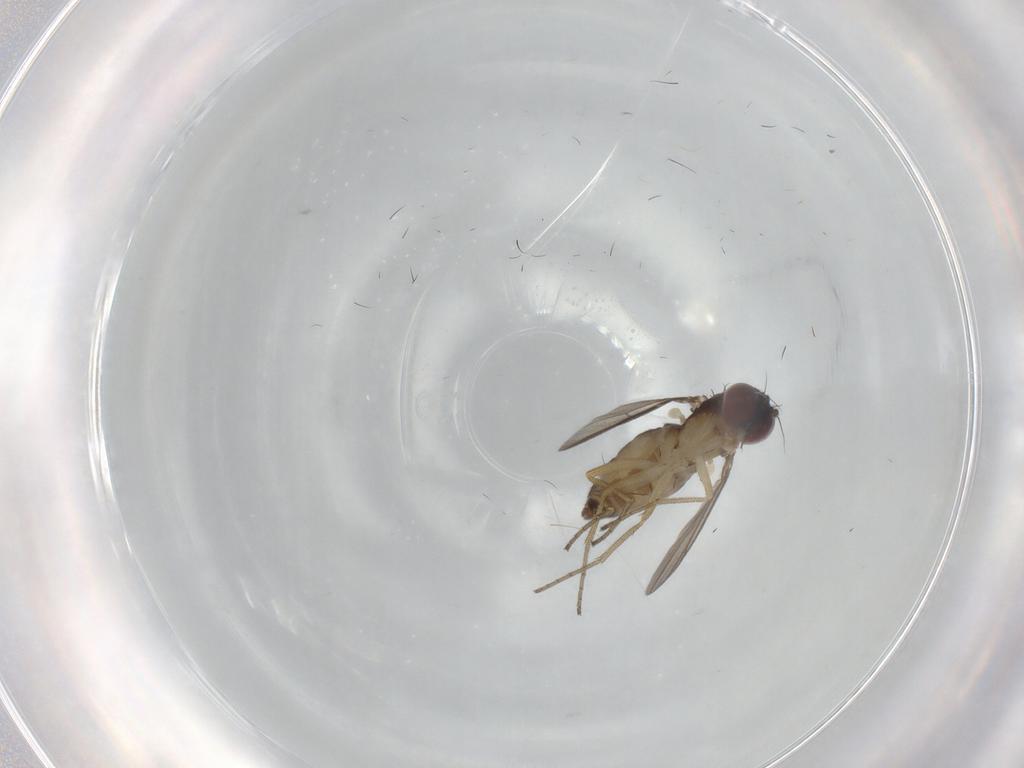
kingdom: Animalia
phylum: Arthropoda
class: Insecta
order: Diptera
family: Dolichopodidae
